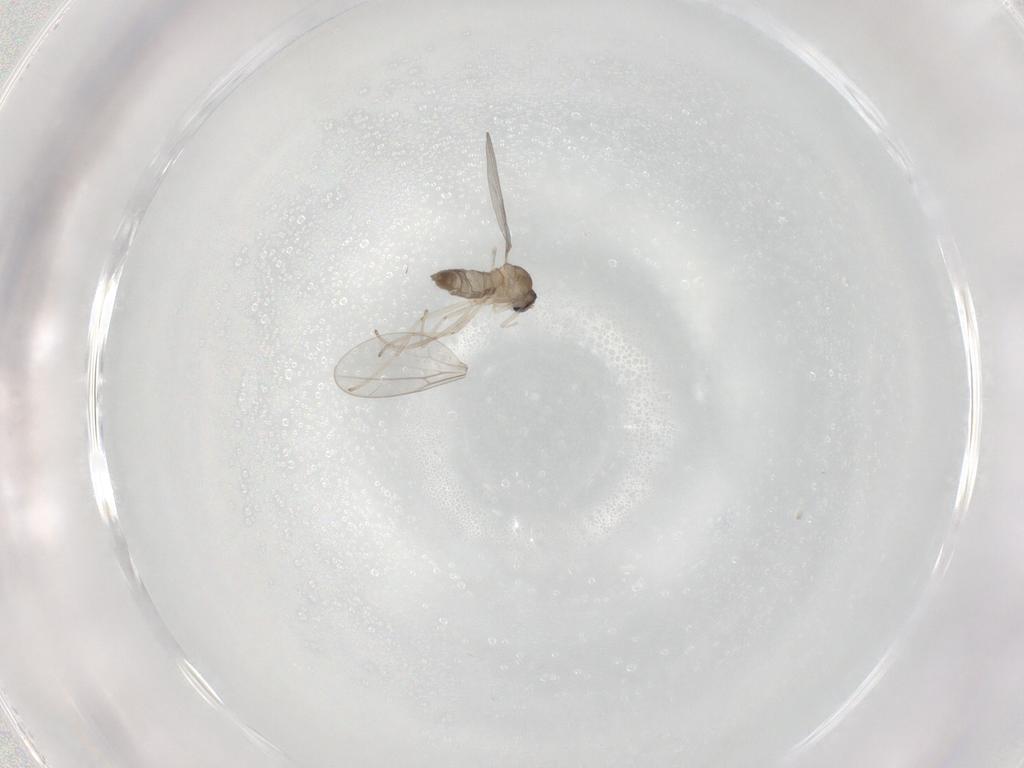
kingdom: Animalia
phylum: Arthropoda
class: Insecta
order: Diptera
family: Cecidomyiidae
